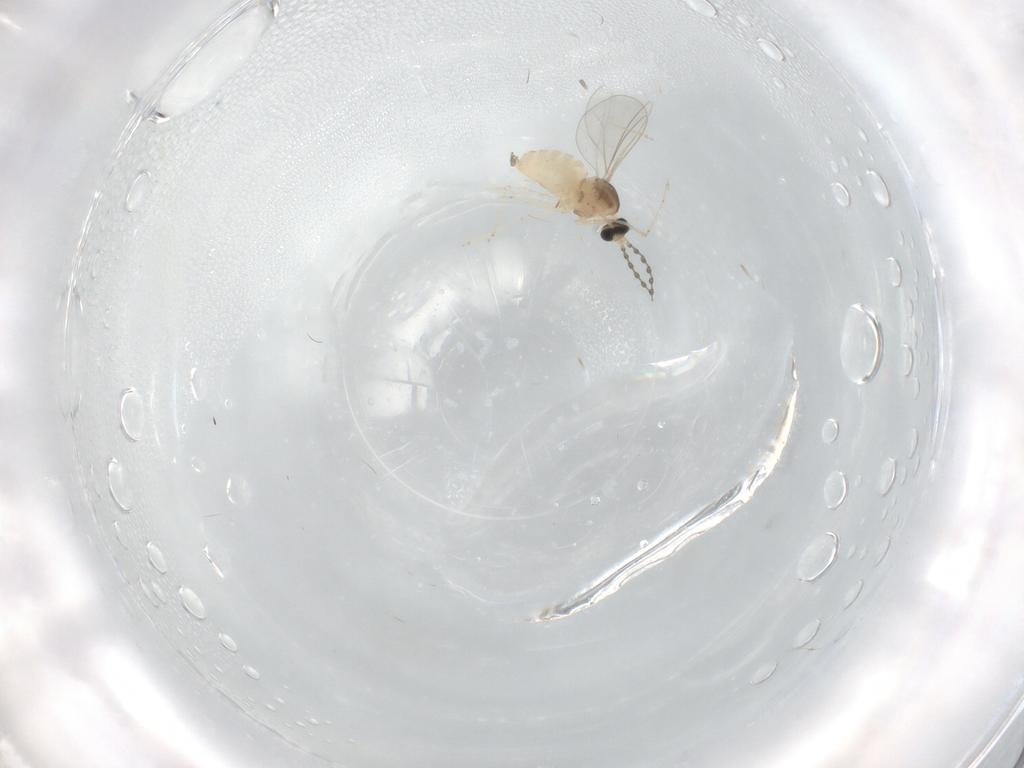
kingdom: Animalia
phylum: Arthropoda
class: Insecta
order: Diptera
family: Cecidomyiidae
